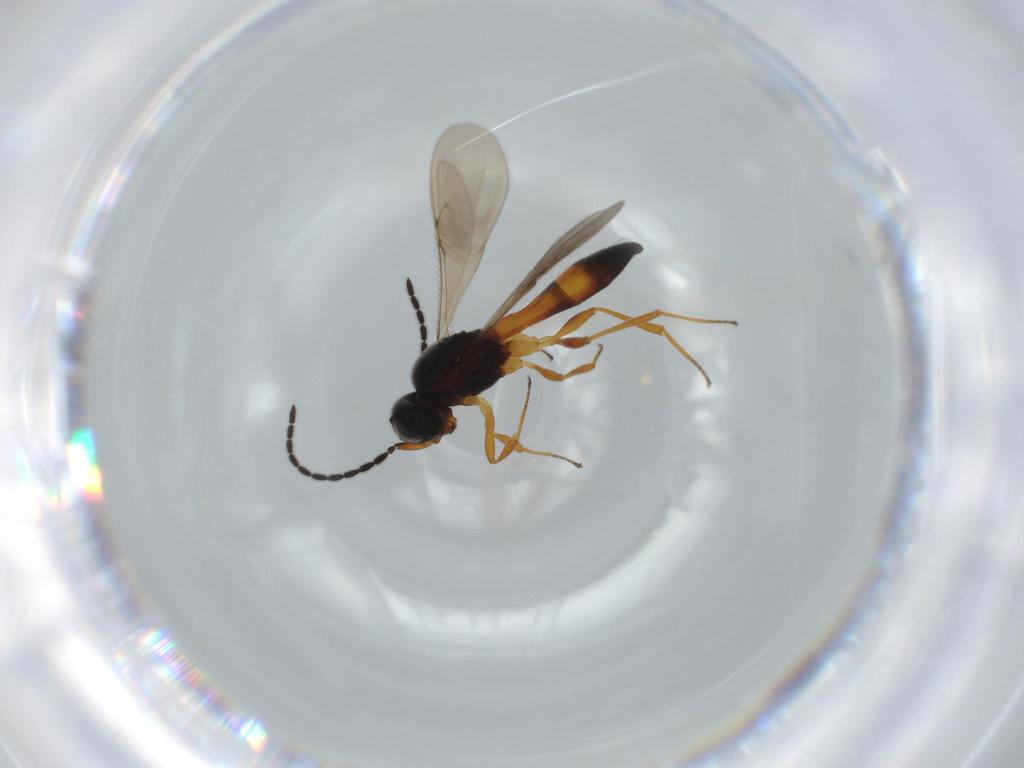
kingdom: Animalia
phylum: Arthropoda
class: Insecta
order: Hymenoptera
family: Scelionidae
